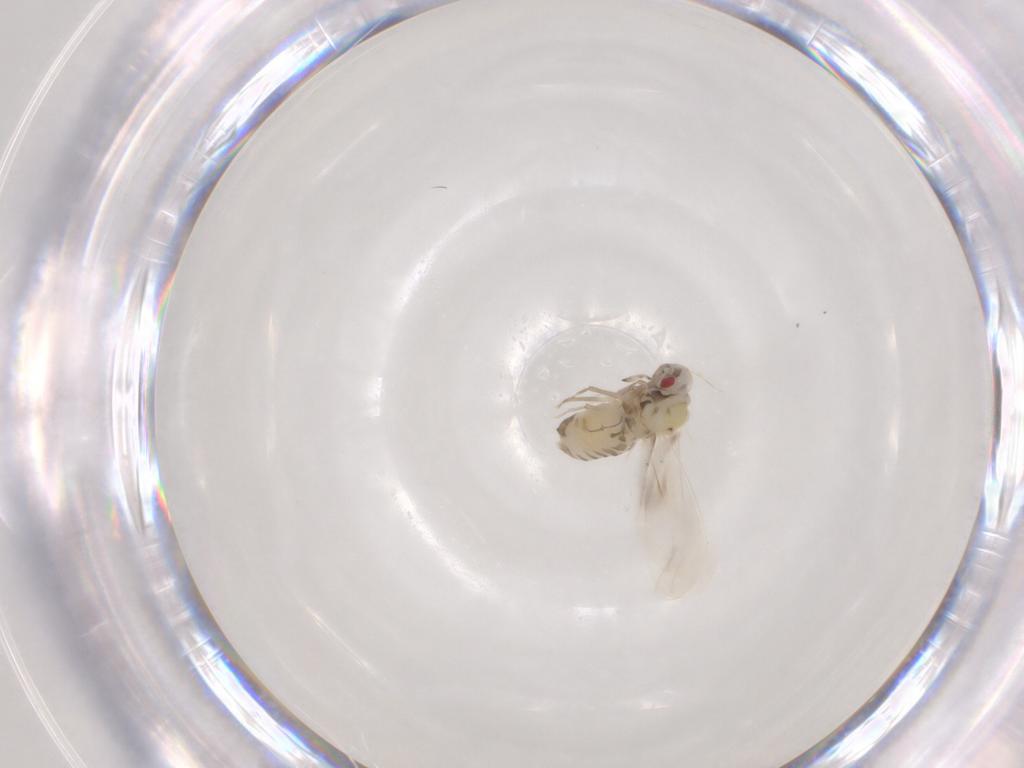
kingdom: Animalia
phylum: Arthropoda
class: Insecta
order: Hemiptera
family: Aleyrodidae
